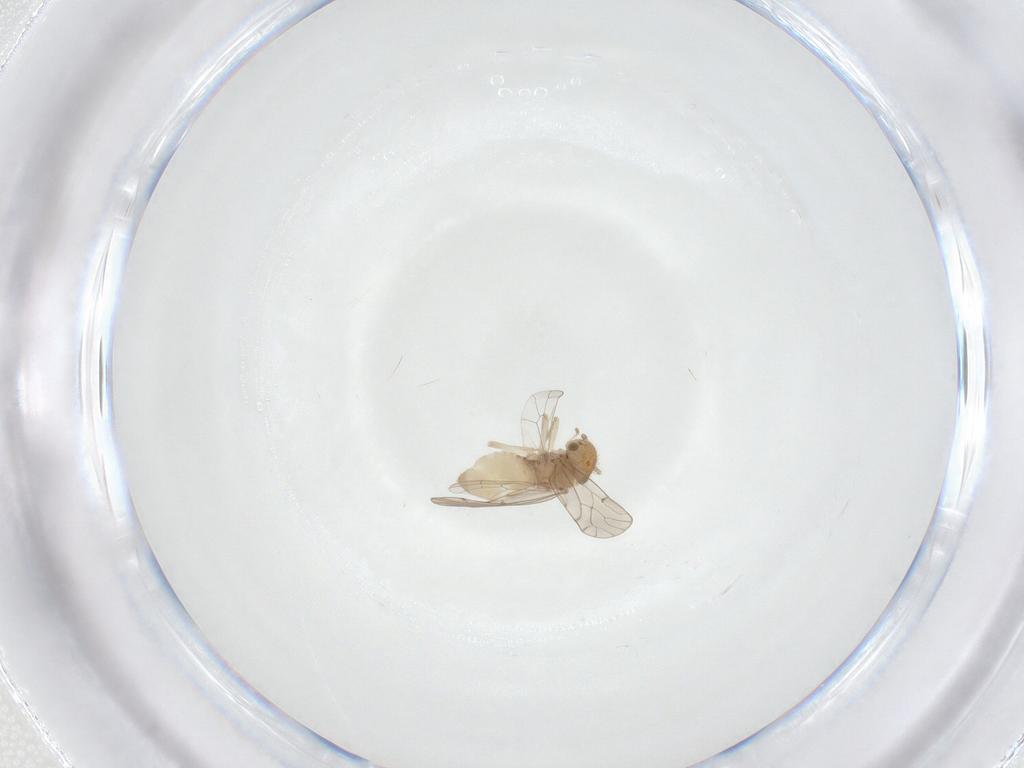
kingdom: Animalia
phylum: Arthropoda
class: Insecta
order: Psocodea
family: Ectopsocidae
